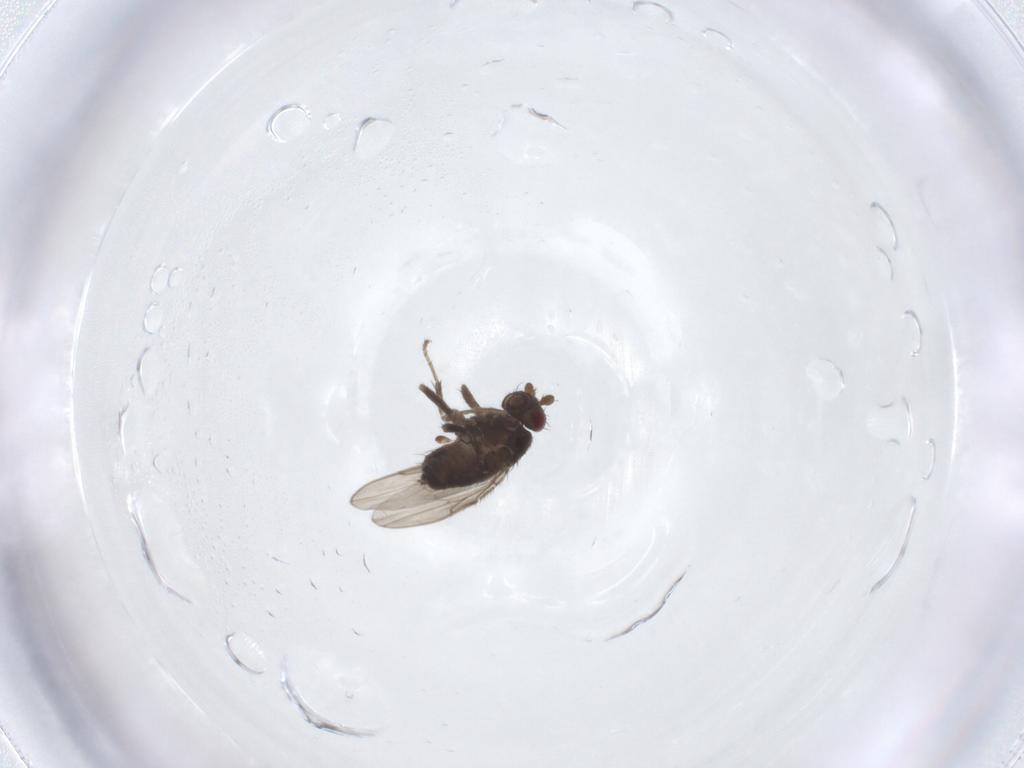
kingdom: Animalia
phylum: Arthropoda
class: Insecta
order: Diptera
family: Sphaeroceridae
